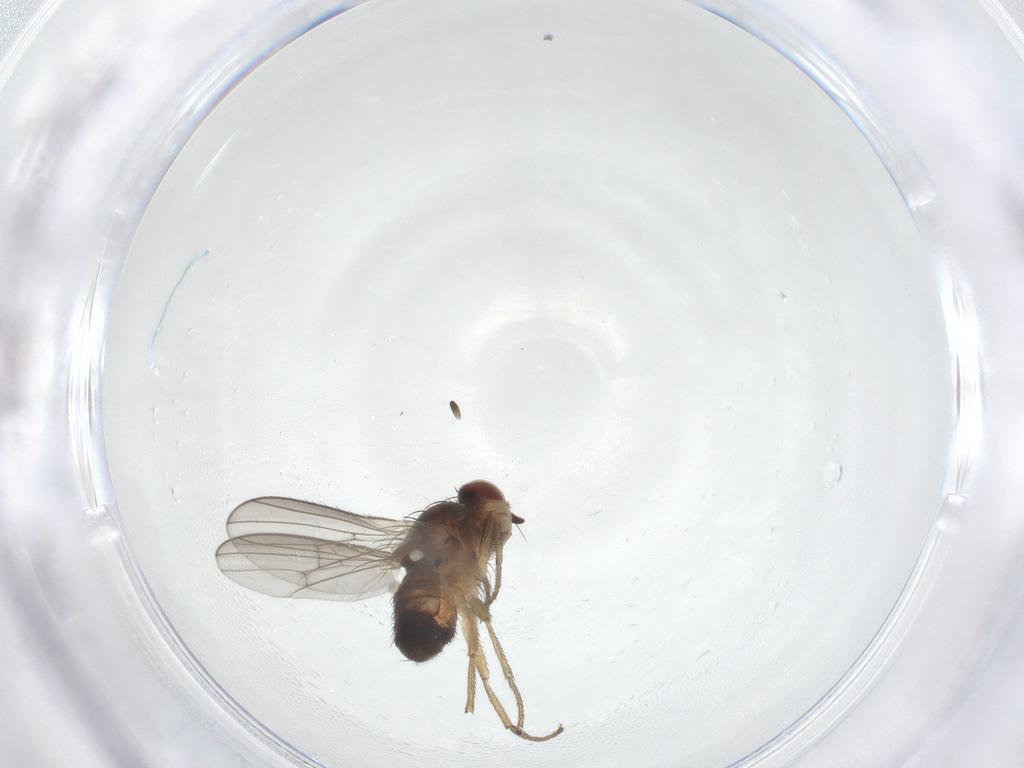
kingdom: Animalia
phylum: Arthropoda
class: Insecta
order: Diptera
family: Heleomyzidae
